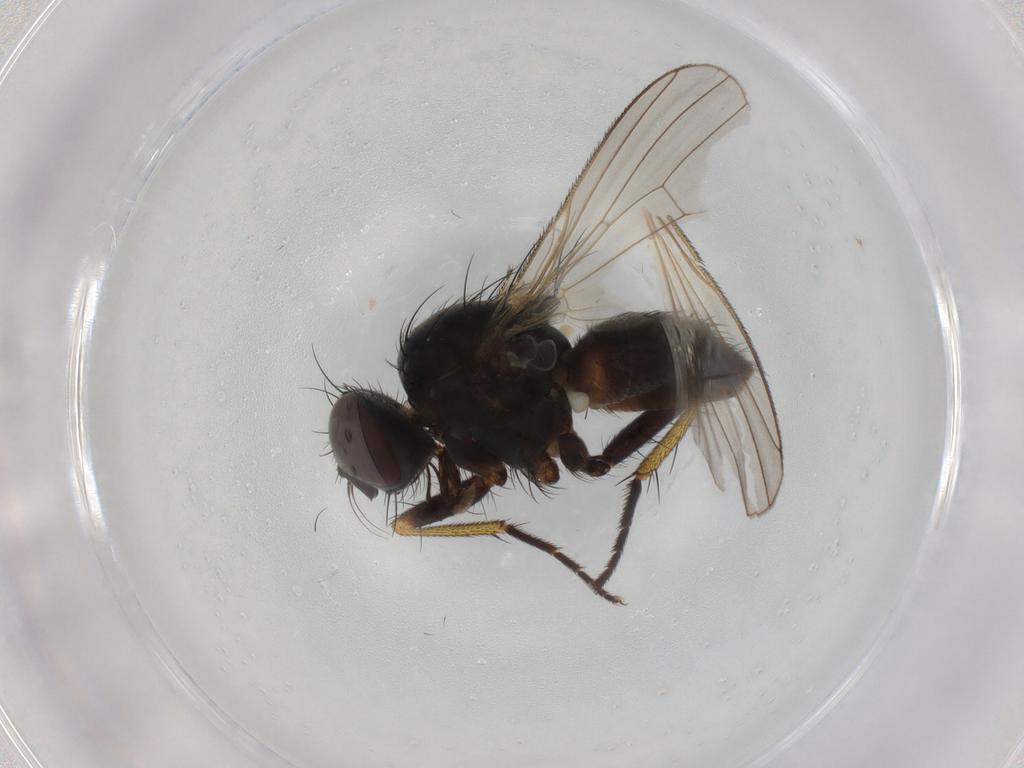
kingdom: Animalia
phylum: Arthropoda
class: Insecta
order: Diptera
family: Muscidae
